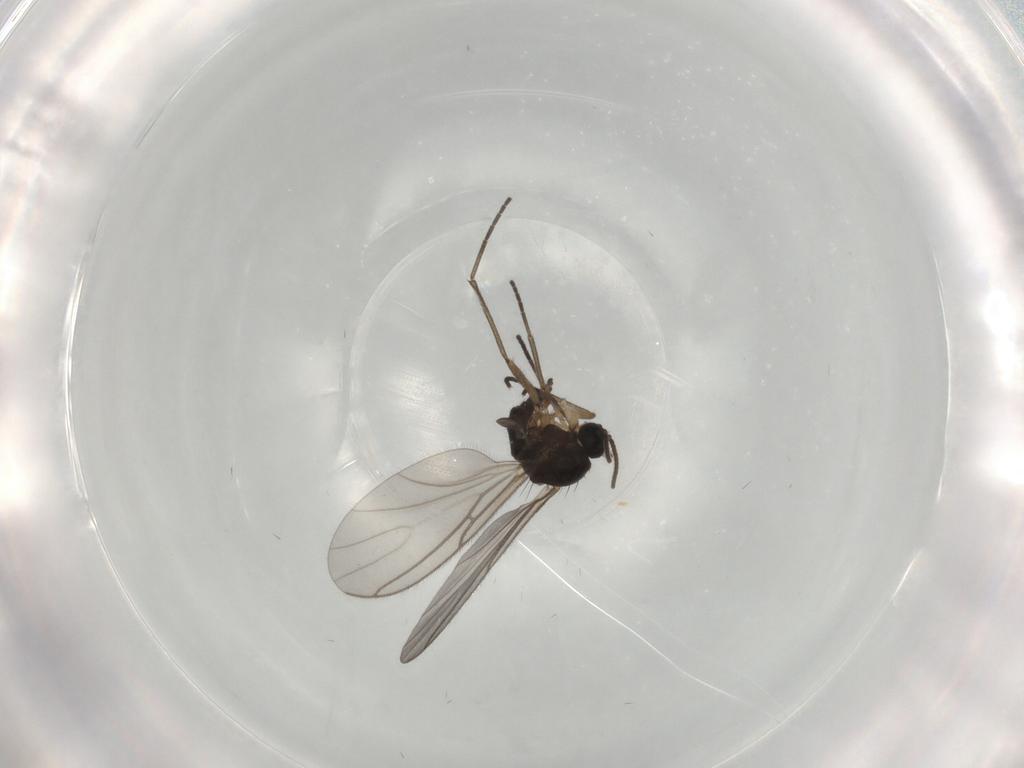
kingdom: Animalia
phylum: Arthropoda
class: Insecta
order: Diptera
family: Sciaridae
